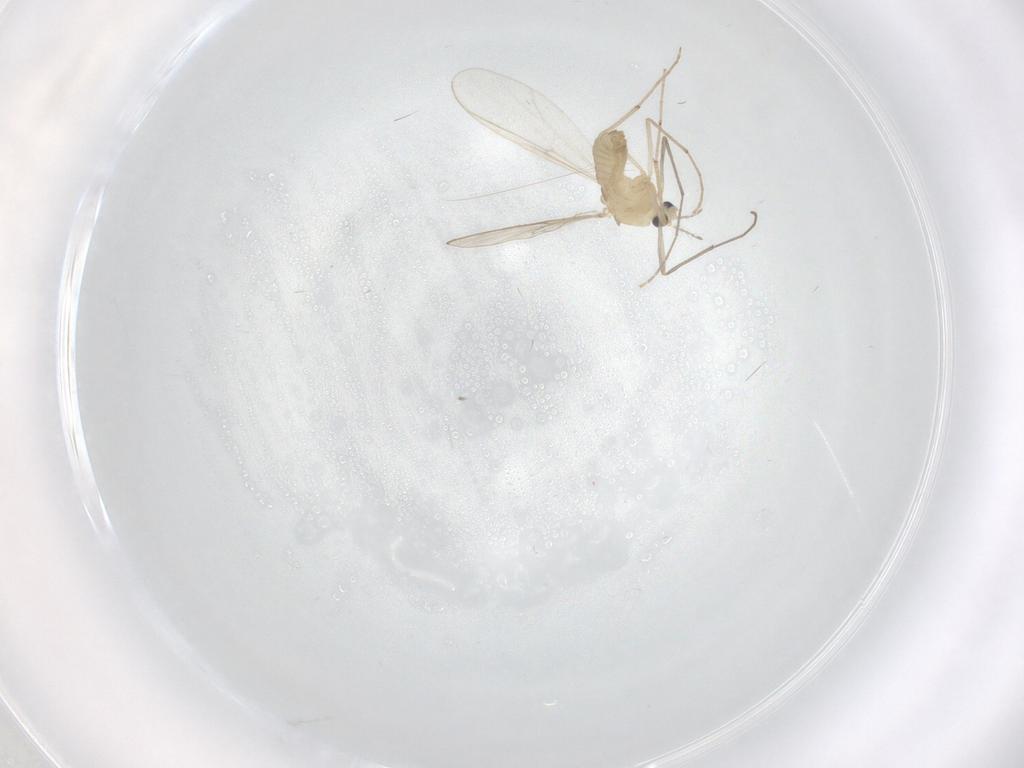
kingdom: Animalia
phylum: Arthropoda
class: Insecta
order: Diptera
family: Chironomidae
